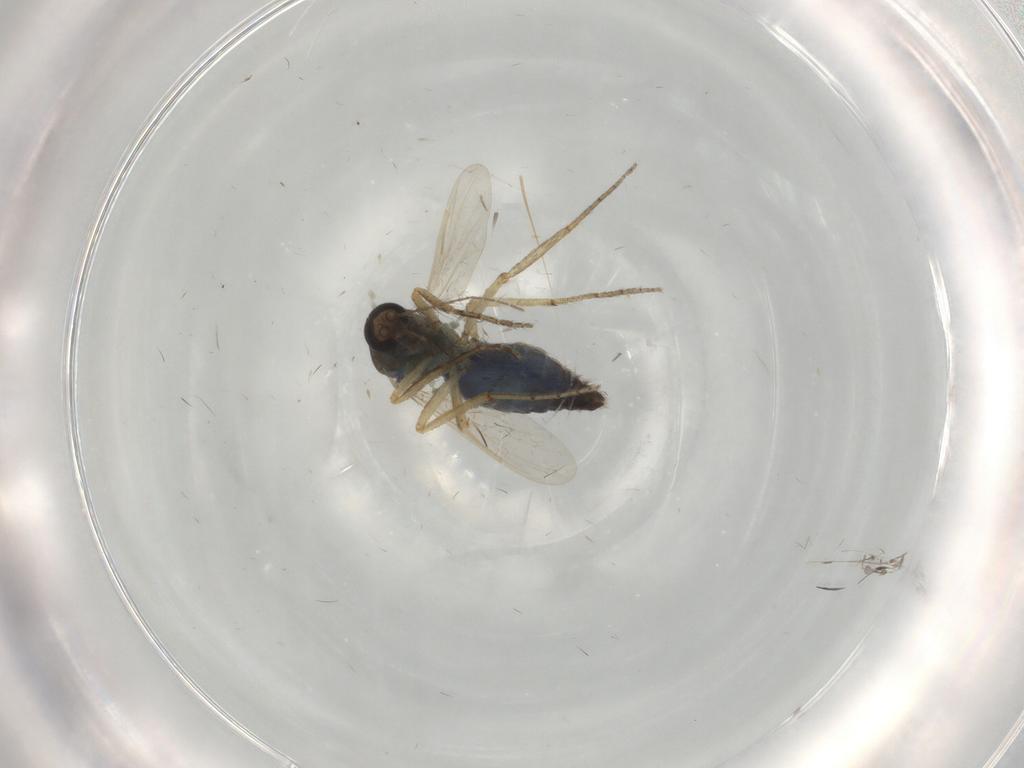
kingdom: Animalia
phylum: Arthropoda
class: Insecta
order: Diptera
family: Ceratopogonidae
